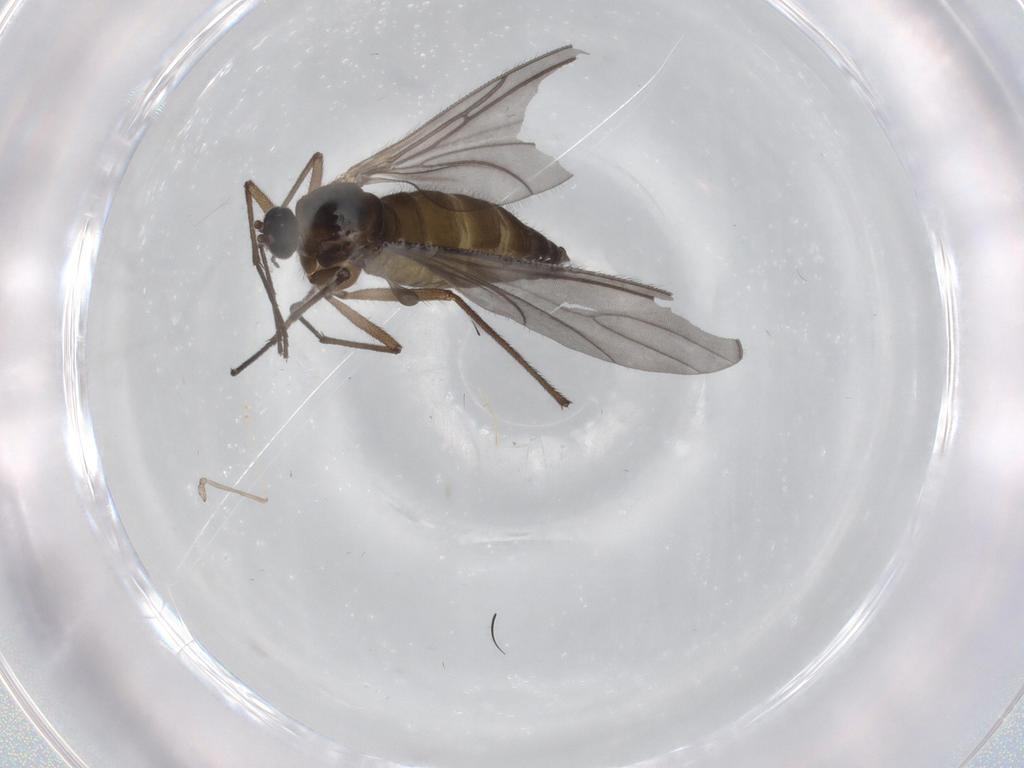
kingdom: Animalia
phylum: Arthropoda
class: Insecta
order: Diptera
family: Cecidomyiidae
